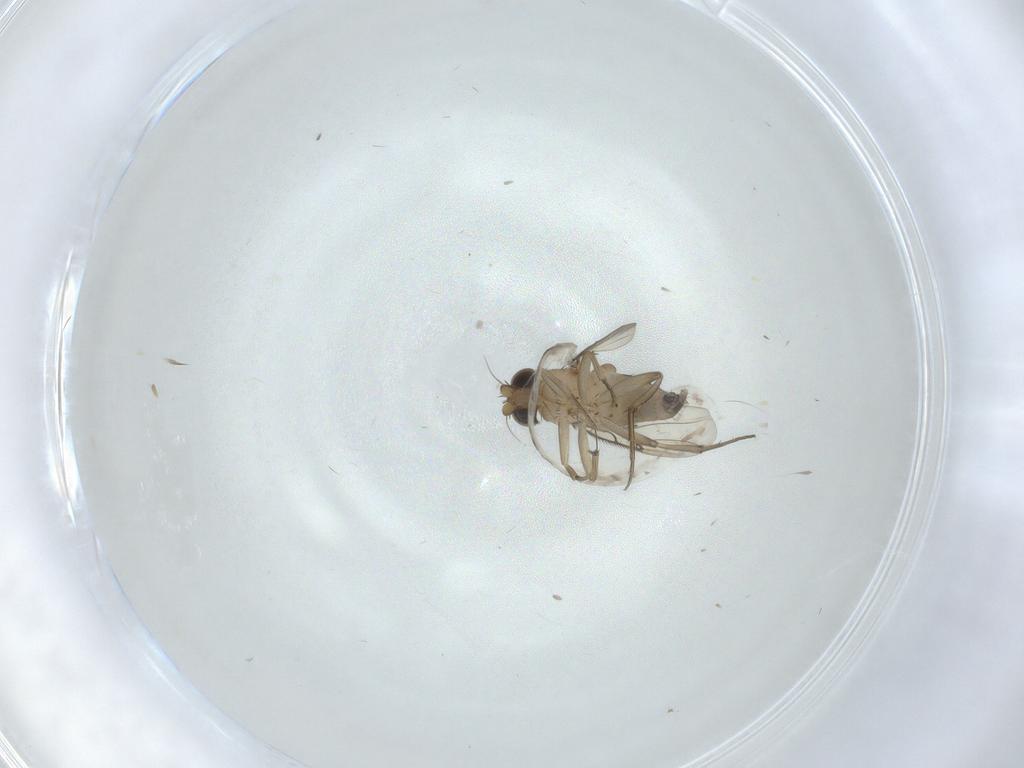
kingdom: Animalia
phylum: Arthropoda
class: Insecta
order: Diptera
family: Phoridae
